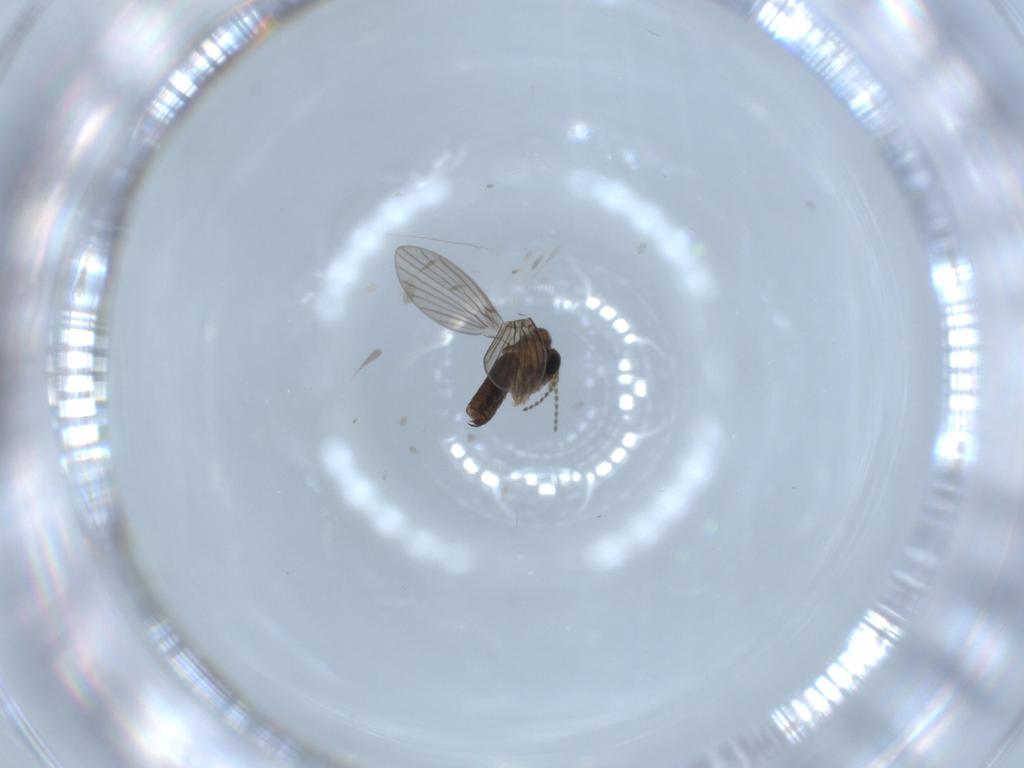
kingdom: Animalia
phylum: Arthropoda
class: Insecta
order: Diptera
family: Ceratopogonidae
